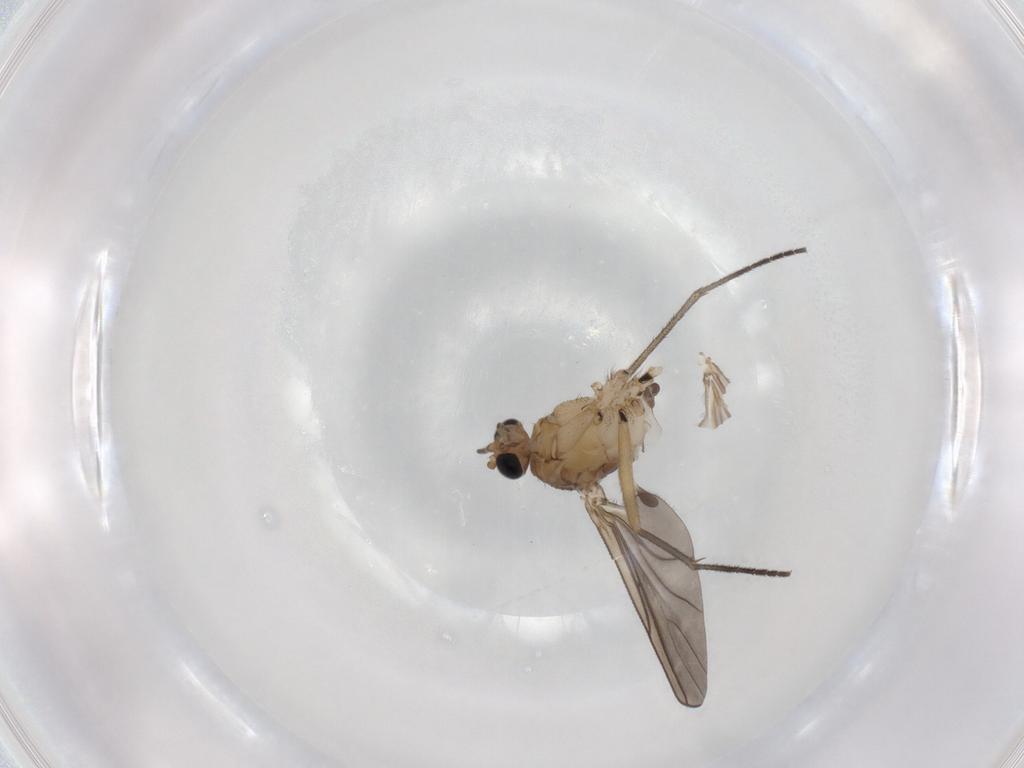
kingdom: Animalia
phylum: Arthropoda
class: Insecta
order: Diptera
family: Sciaridae
